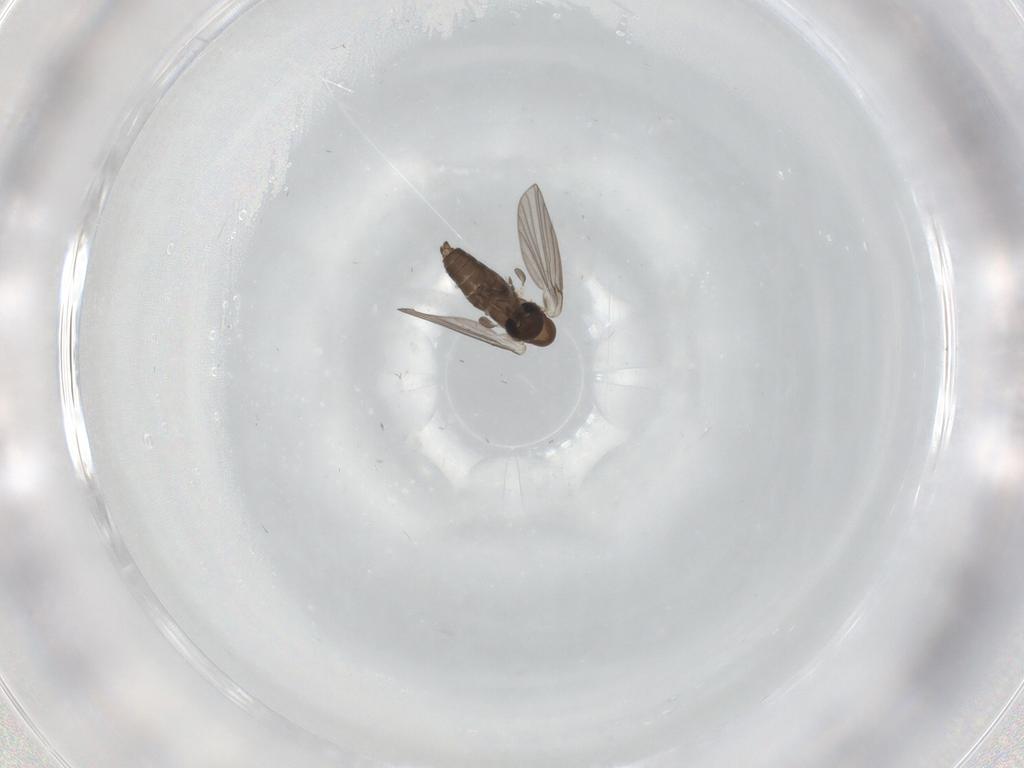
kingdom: Animalia
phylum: Arthropoda
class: Insecta
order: Diptera
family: Cecidomyiidae
